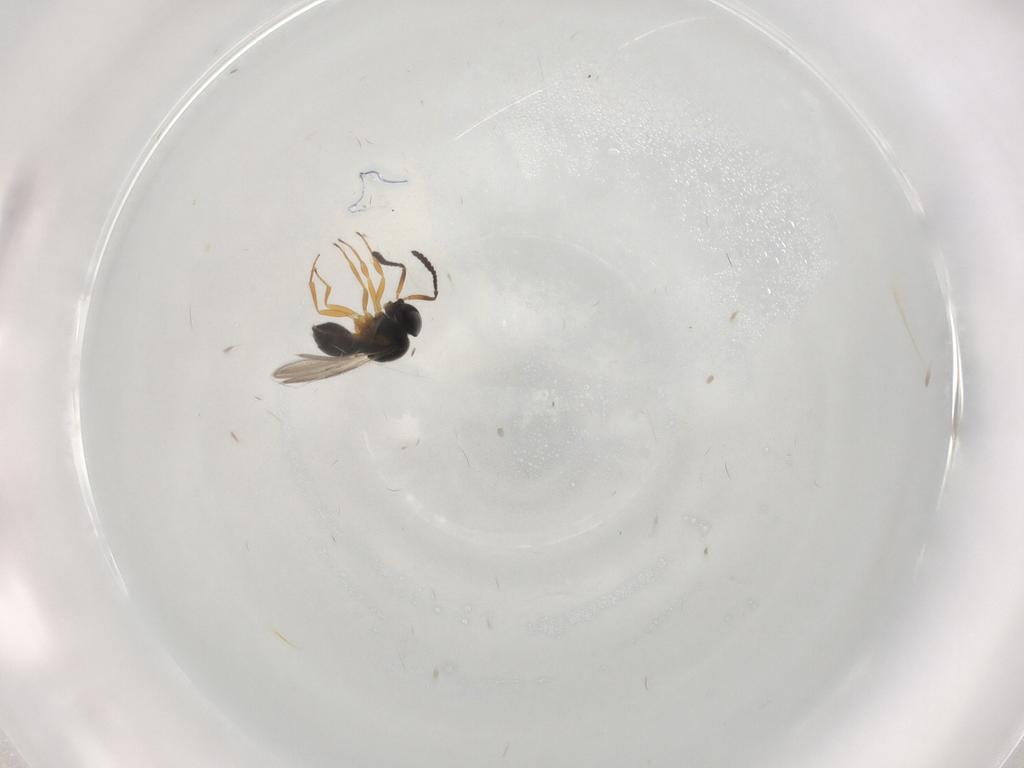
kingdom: Animalia
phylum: Arthropoda
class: Insecta
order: Hymenoptera
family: Scelionidae
